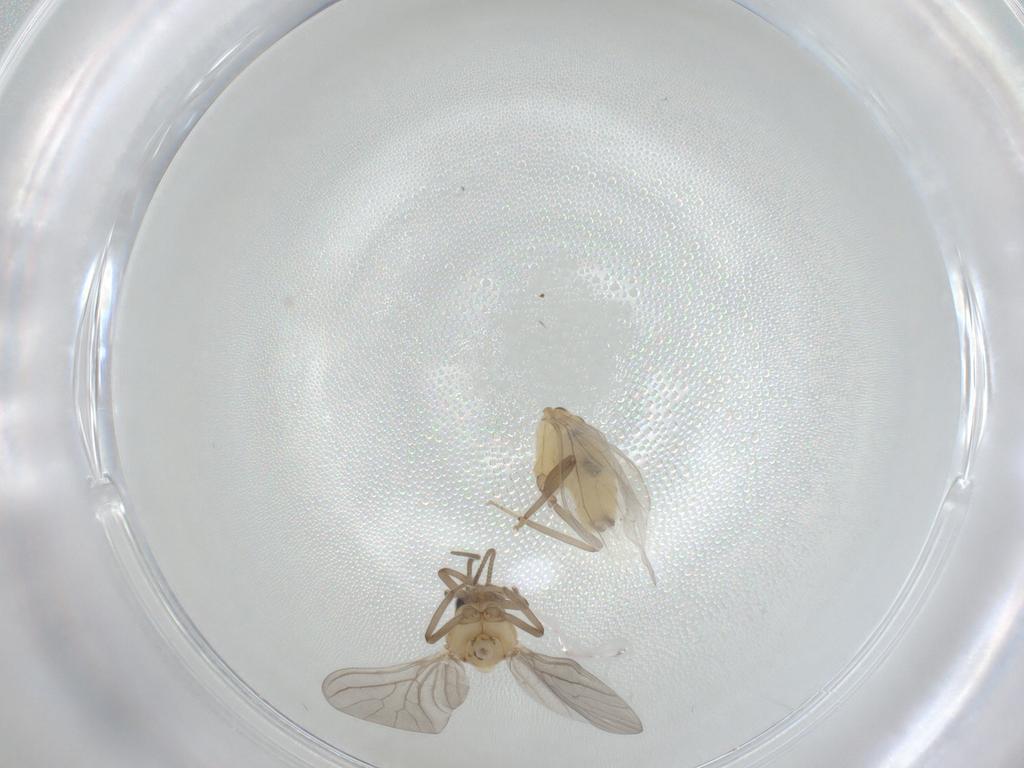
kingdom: Animalia
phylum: Arthropoda
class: Insecta
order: Neuroptera
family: Coniopterygidae
